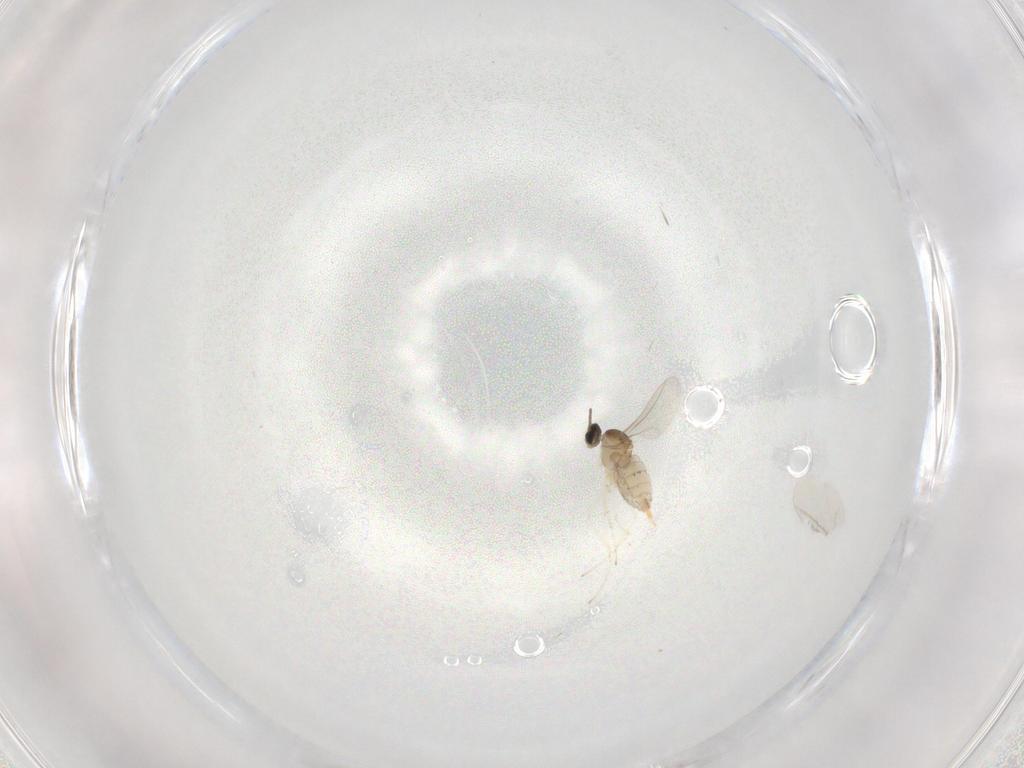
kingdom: Animalia
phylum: Arthropoda
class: Insecta
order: Diptera
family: Cecidomyiidae
